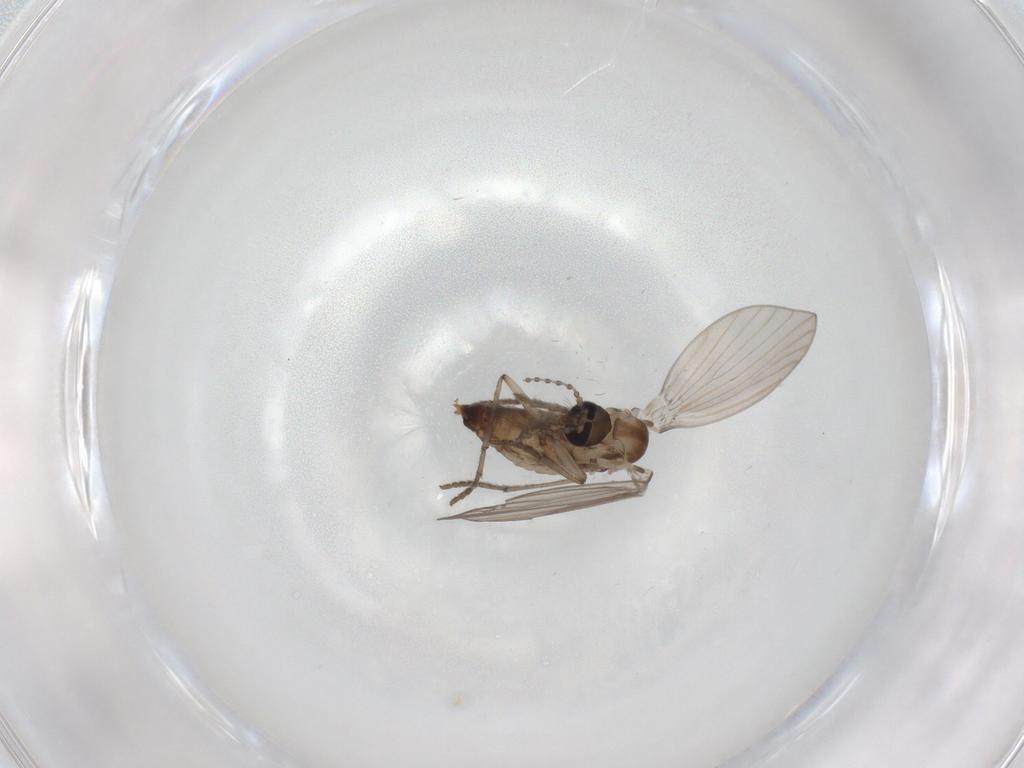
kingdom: Animalia
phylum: Arthropoda
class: Insecta
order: Diptera
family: Psychodidae
